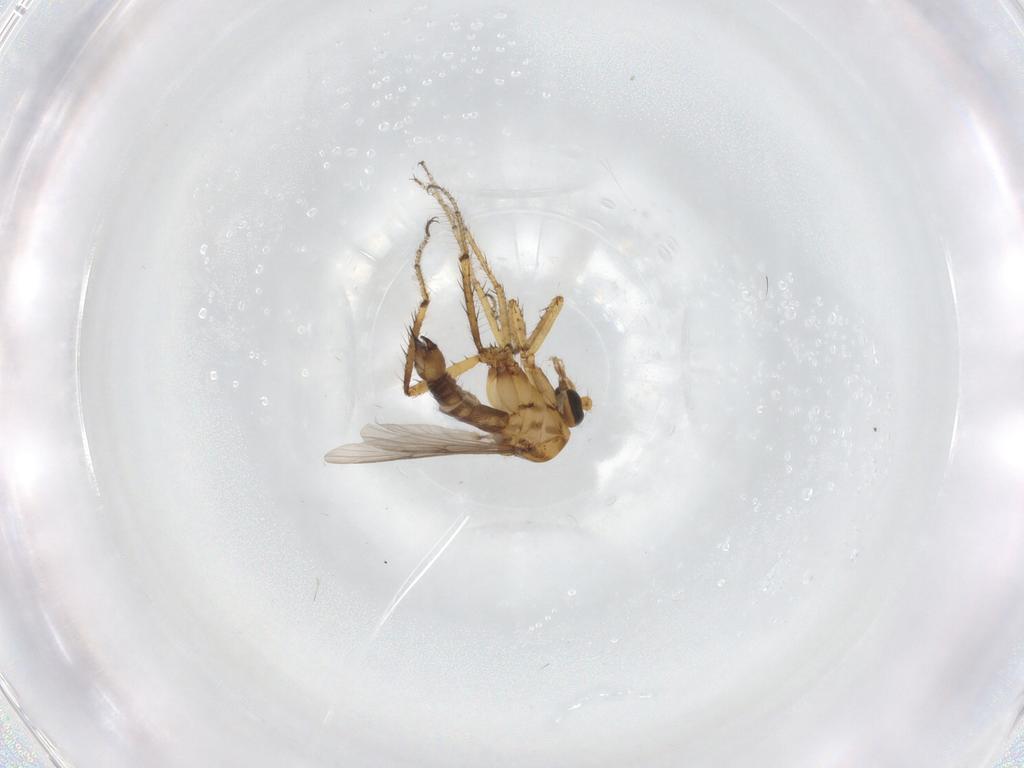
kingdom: Animalia
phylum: Arthropoda
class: Insecta
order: Diptera
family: Ceratopogonidae
